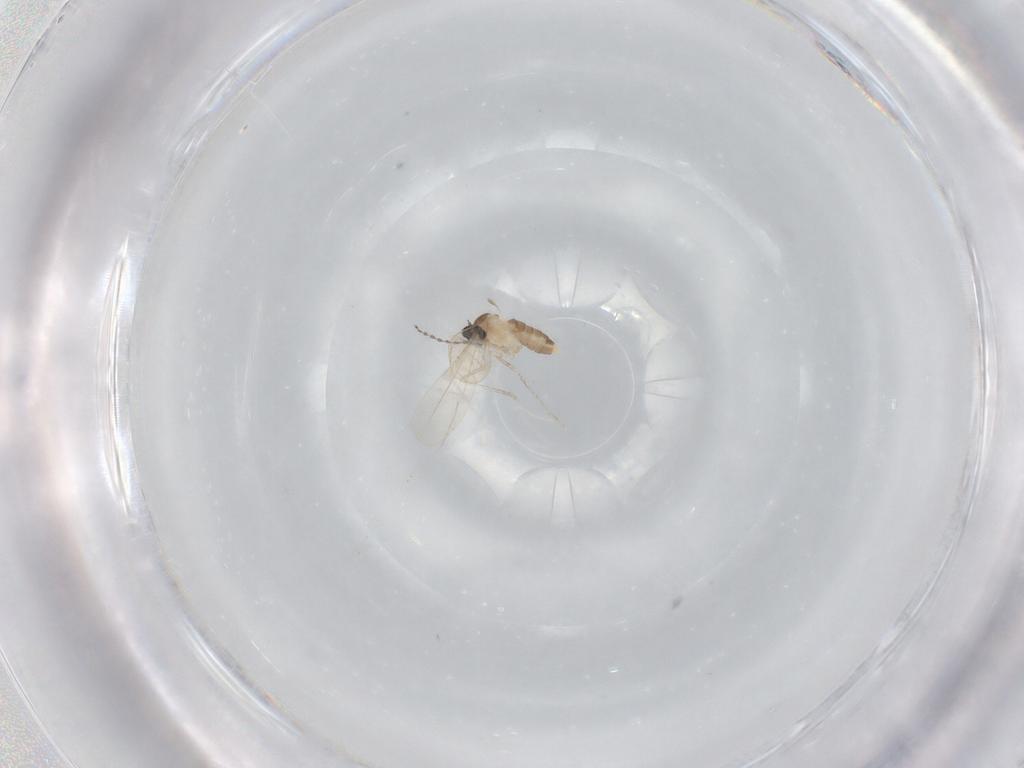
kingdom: Animalia
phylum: Arthropoda
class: Insecta
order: Diptera
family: Cecidomyiidae
